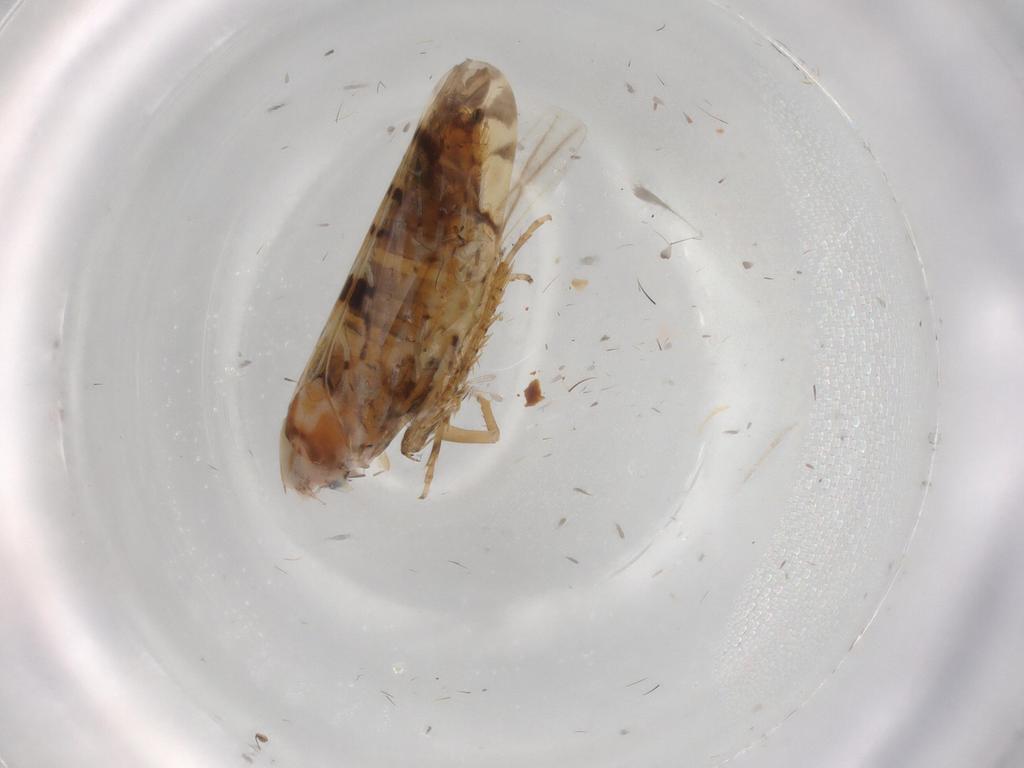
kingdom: Animalia
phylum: Arthropoda
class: Insecta
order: Hemiptera
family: Cicadellidae
